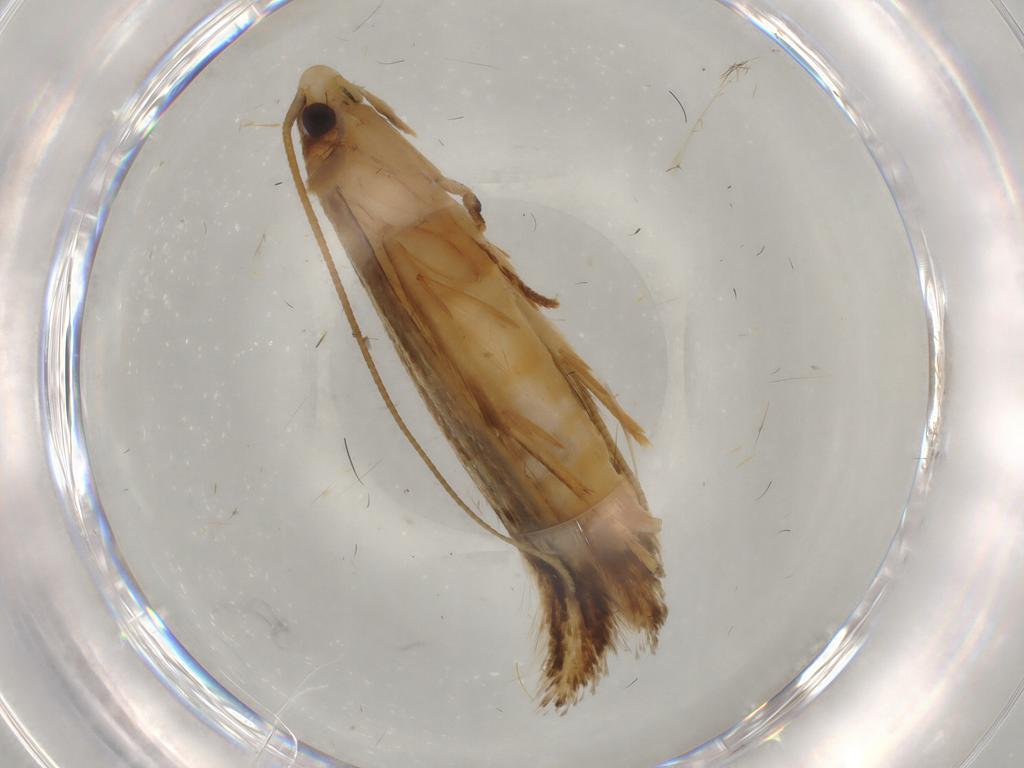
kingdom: Animalia
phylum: Arthropoda
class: Insecta
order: Lepidoptera
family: Tineidae
